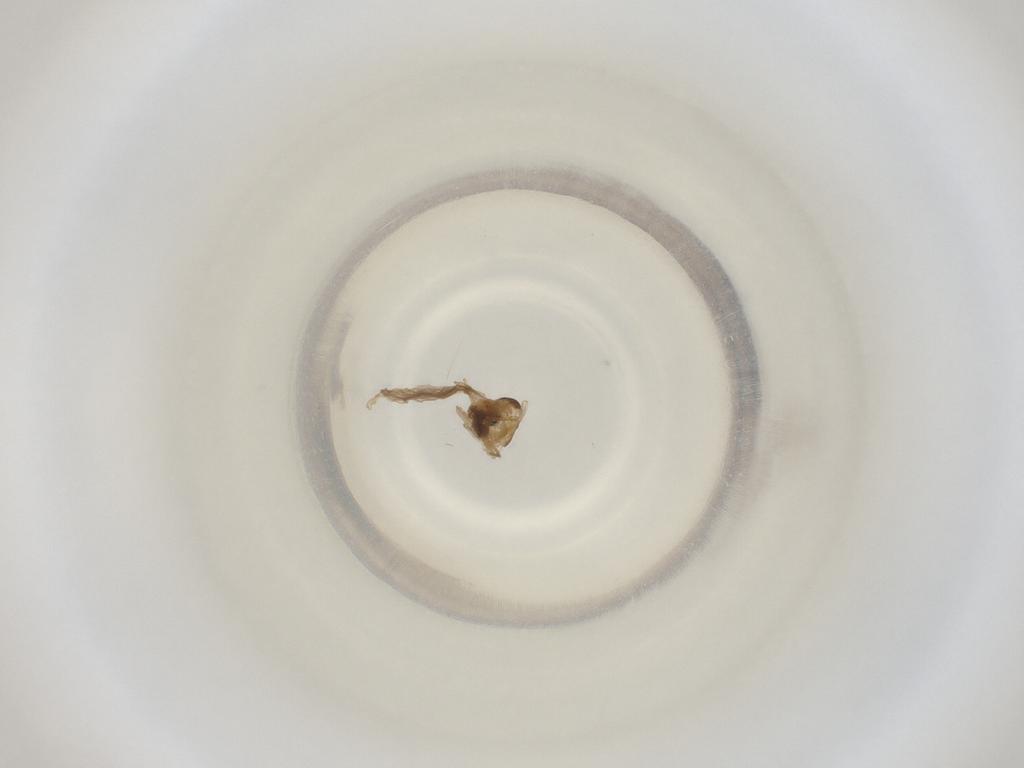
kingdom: Animalia
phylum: Arthropoda
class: Insecta
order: Diptera
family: Cecidomyiidae
